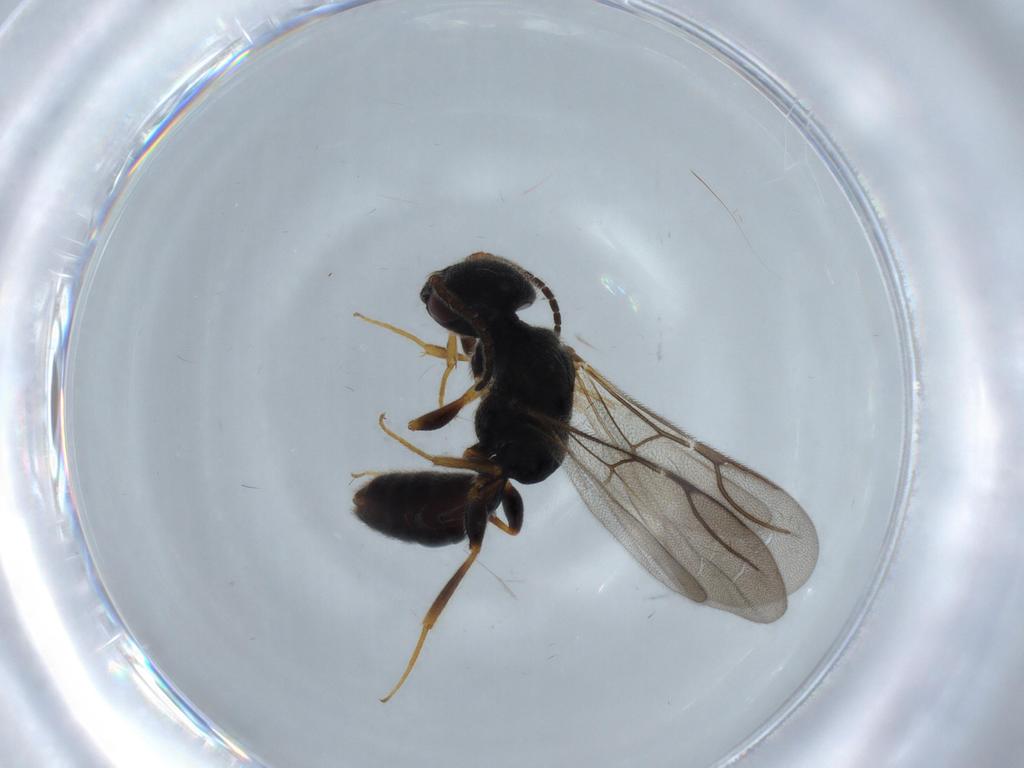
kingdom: Animalia
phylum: Arthropoda
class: Insecta
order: Hymenoptera
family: Bethylidae
